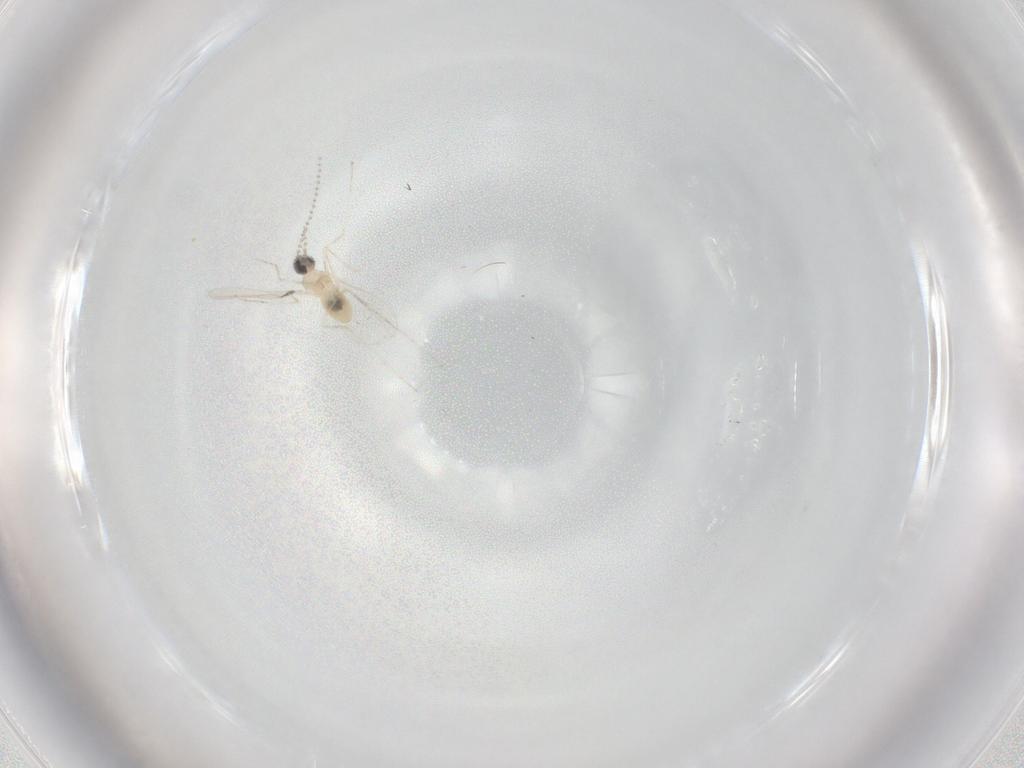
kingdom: Animalia
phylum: Arthropoda
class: Insecta
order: Diptera
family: Cecidomyiidae
